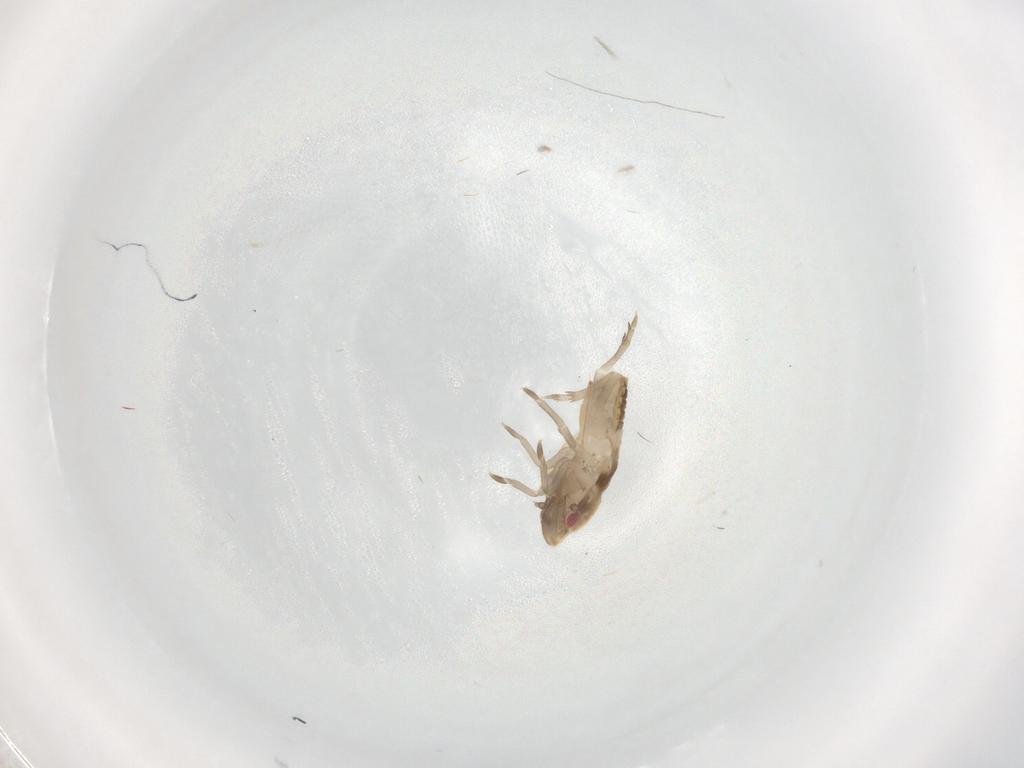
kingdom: Animalia
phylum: Arthropoda
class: Insecta
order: Hemiptera
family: Flatidae
